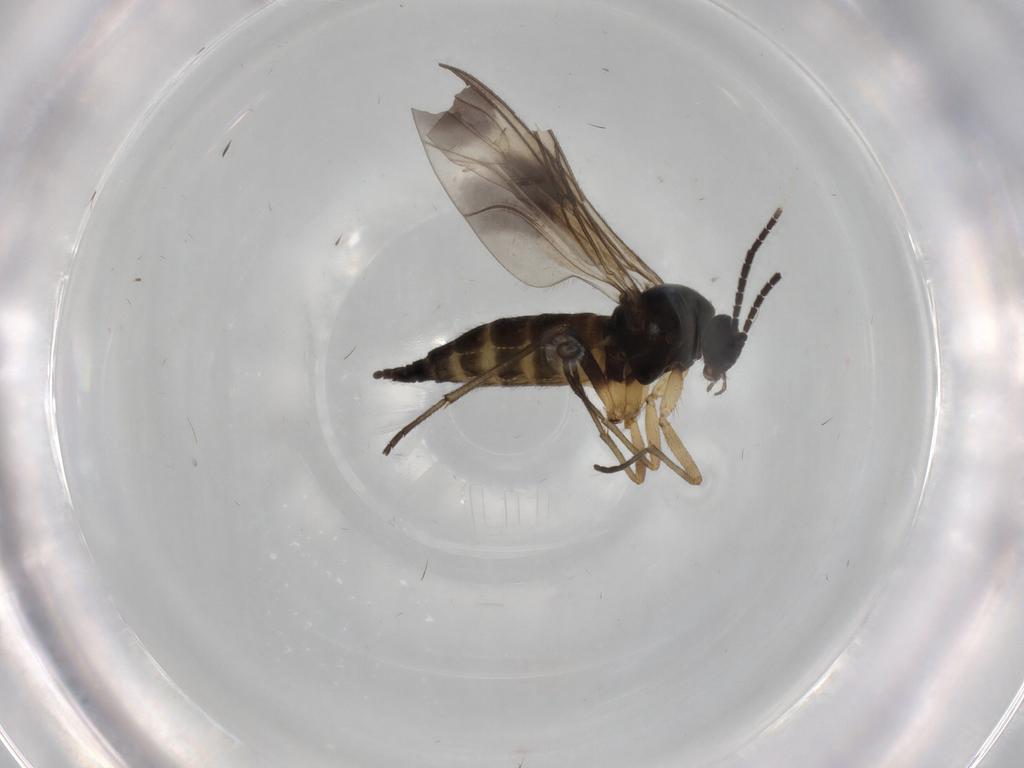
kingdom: Animalia
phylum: Arthropoda
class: Insecta
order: Diptera
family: Sciaridae
